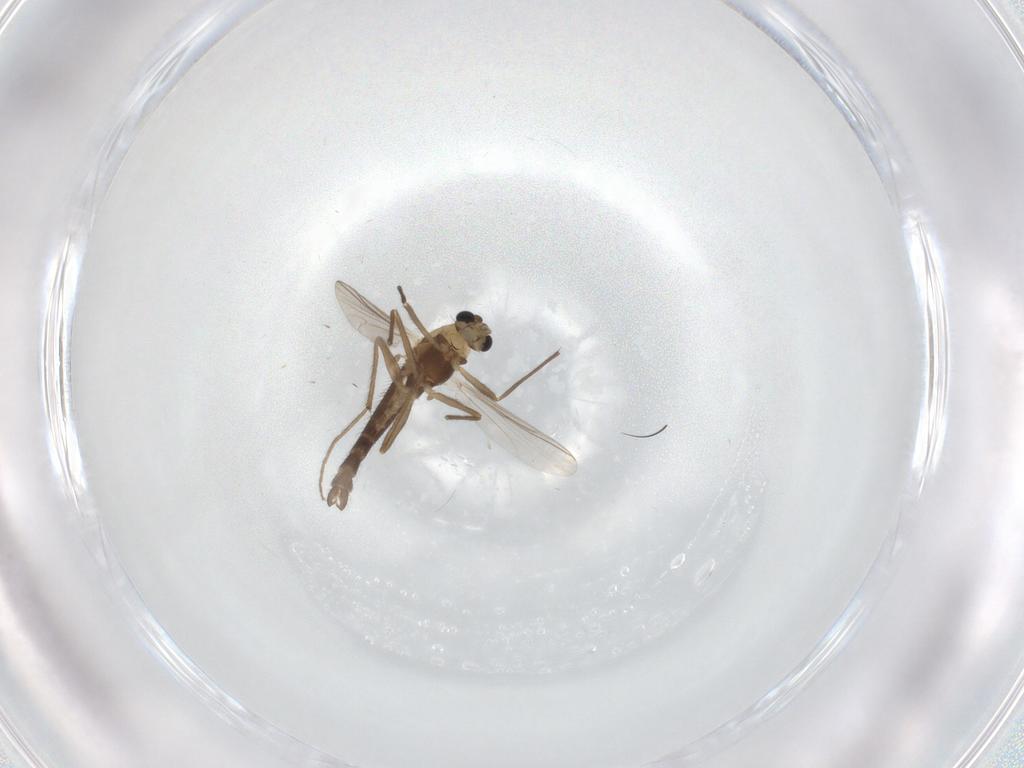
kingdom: Animalia
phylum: Arthropoda
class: Insecta
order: Diptera
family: Chironomidae
